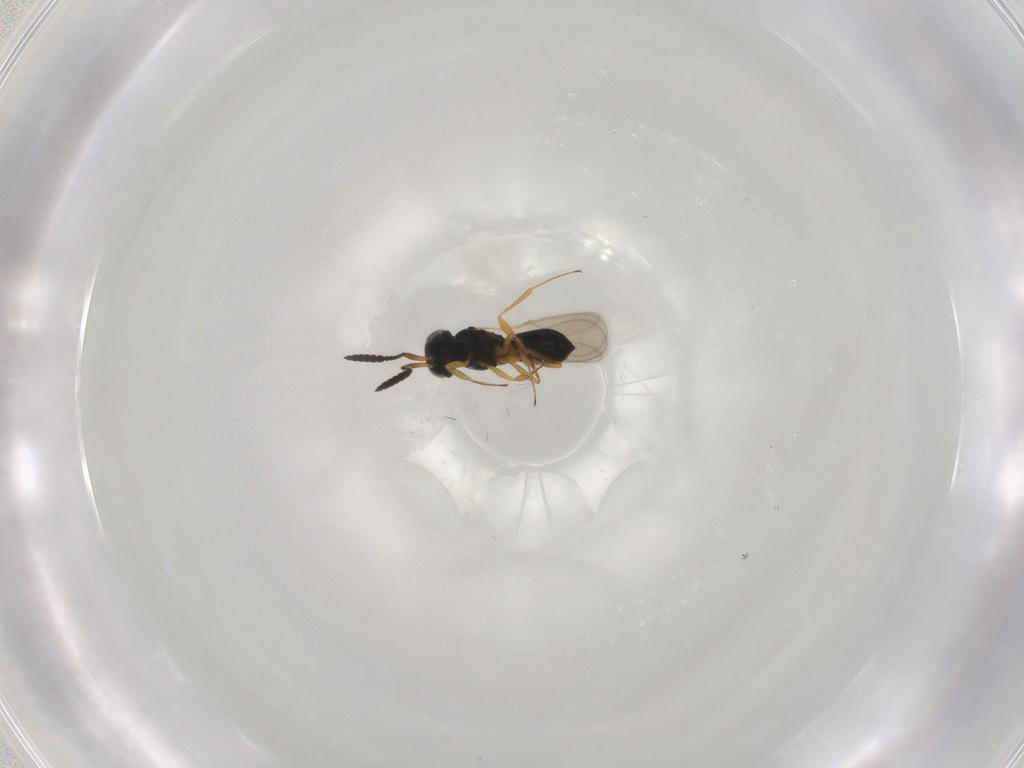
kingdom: Animalia
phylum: Arthropoda
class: Insecta
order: Hymenoptera
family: Scelionidae
